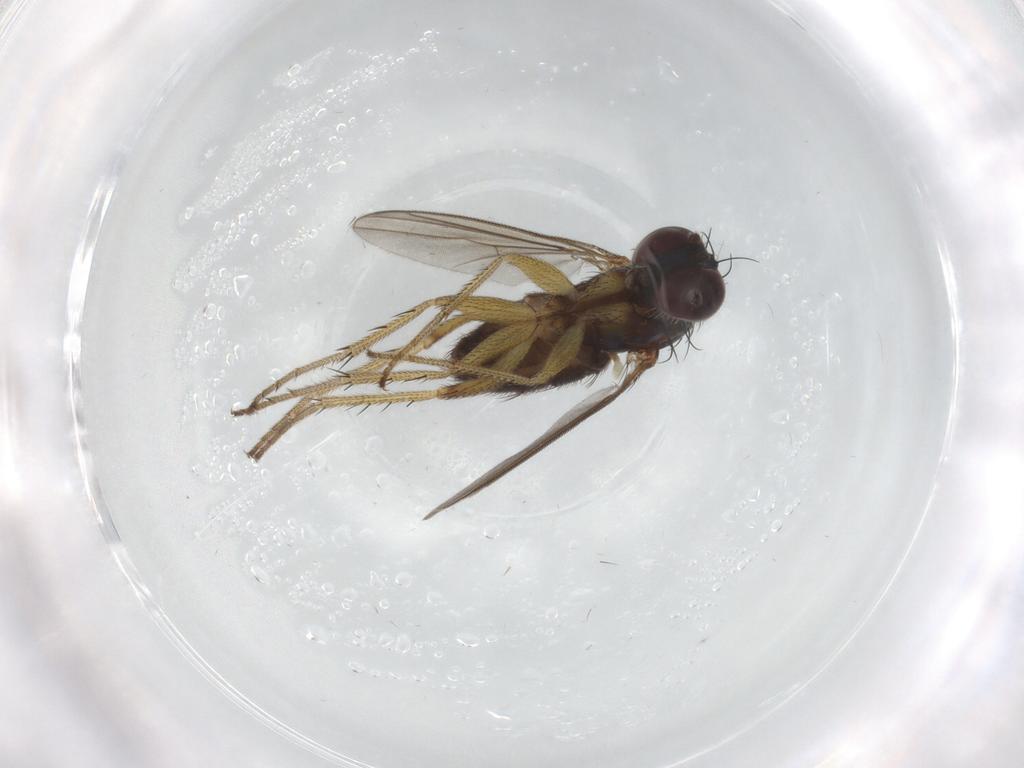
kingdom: Animalia
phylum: Arthropoda
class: Insecta
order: Diptera
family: Dolichopodidae
